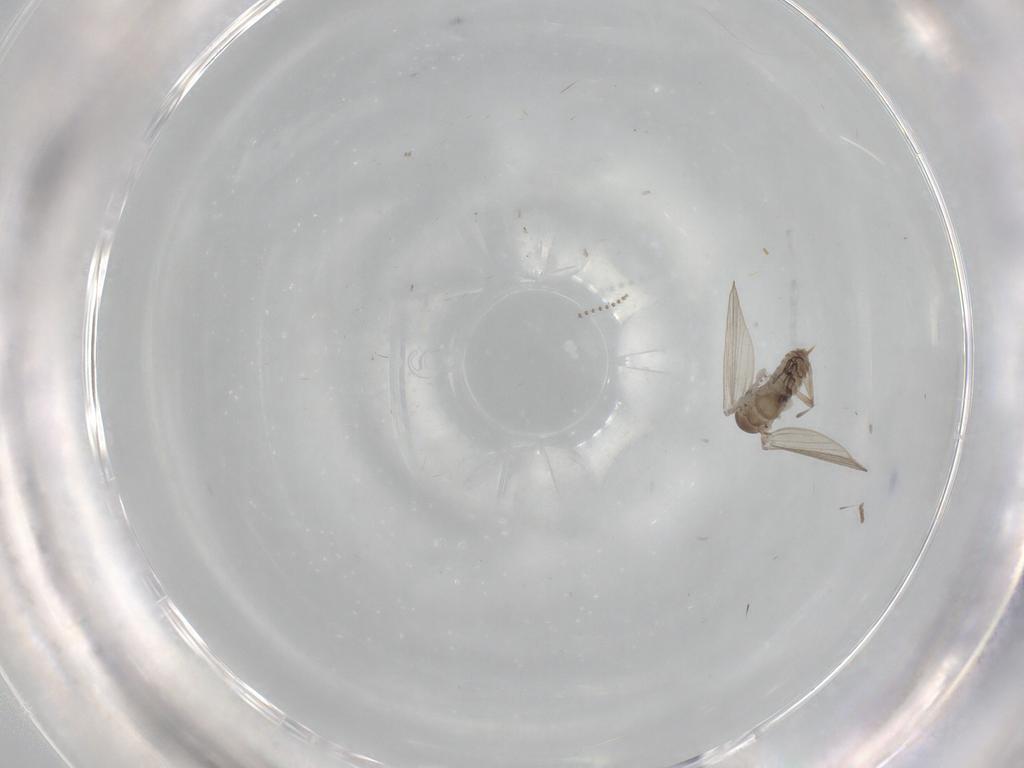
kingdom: Animalia
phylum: Arthropoda
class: Insecta
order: Diptera
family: Psychodidae
